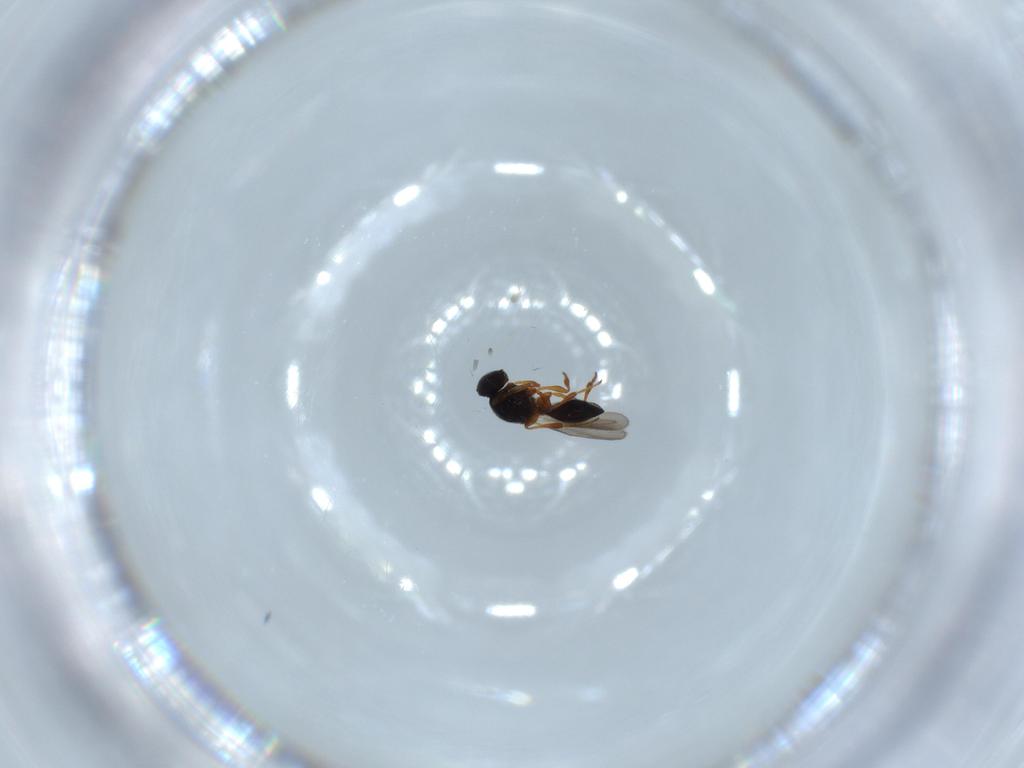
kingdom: Animalia
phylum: Arthropoda
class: Insecta
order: Hymenoptera
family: Platygastridae
